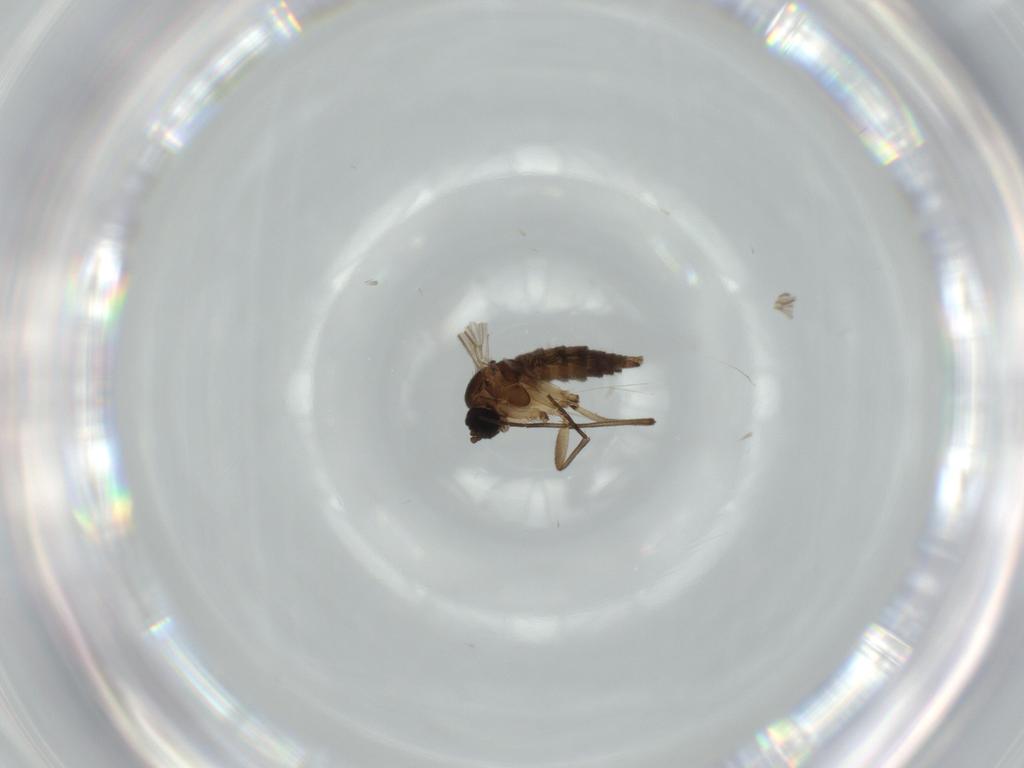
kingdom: Animalia
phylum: Arthropoda
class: Insecta
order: Diptera
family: Sciaridae
